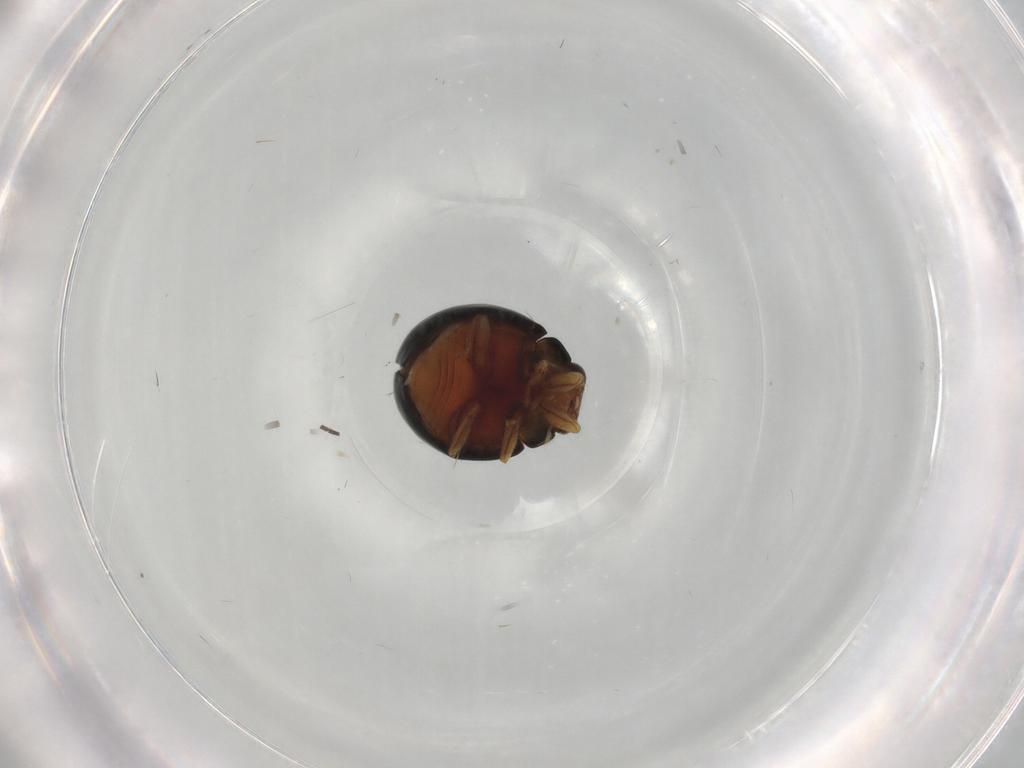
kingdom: Animalia
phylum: Arthropoda
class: Insecta
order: Coleoptera
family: Coccinellidae
